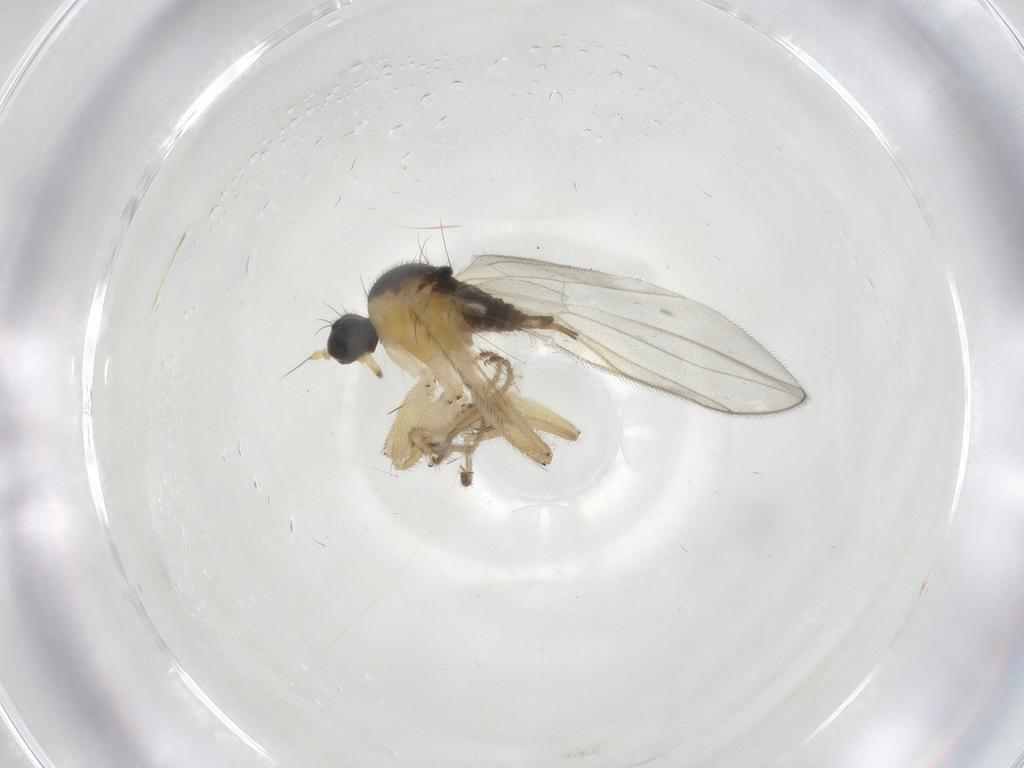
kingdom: Animalia
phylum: Arthropoda
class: Insecta
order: Diptera
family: Hybotidae
